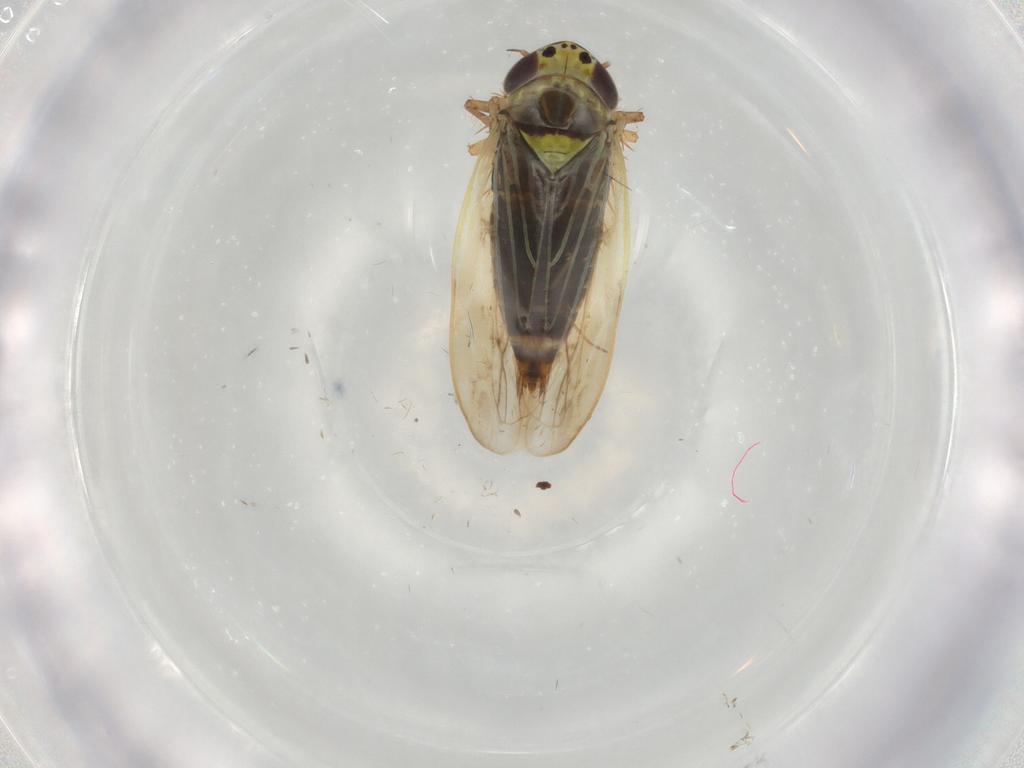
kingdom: Animalia
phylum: Arthropoda
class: Insecta
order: Hemiptera
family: Cicadellidae
